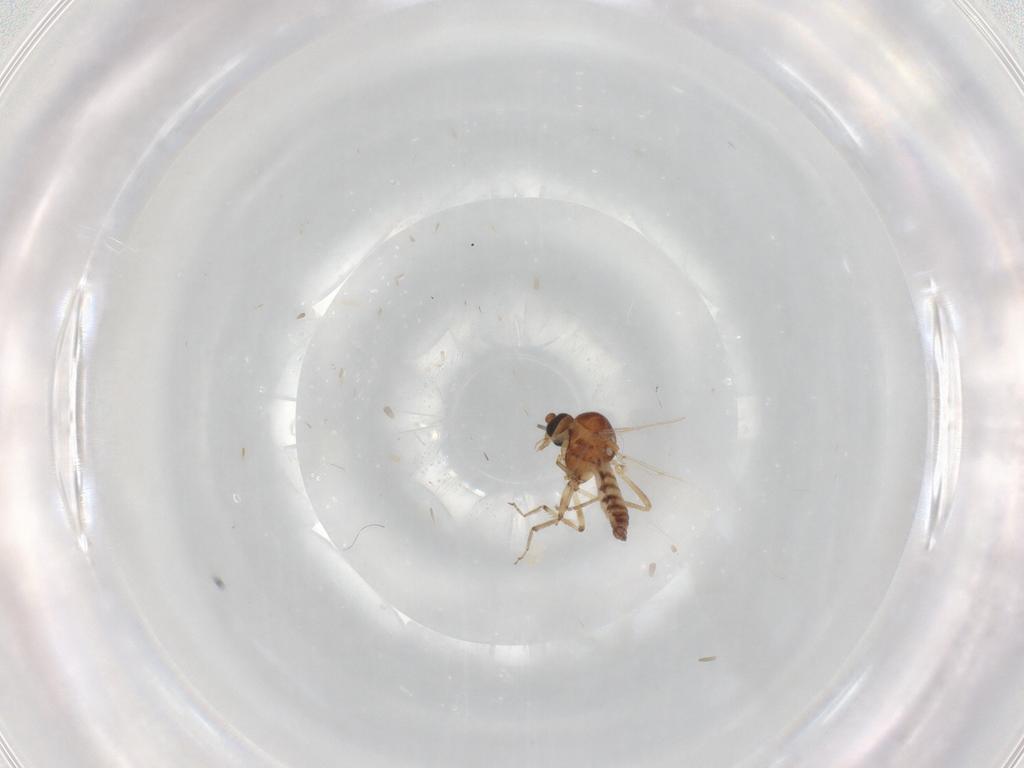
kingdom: Animalia
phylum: Arthropoda
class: Insecta
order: Diptera
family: Ceratopogonidae
